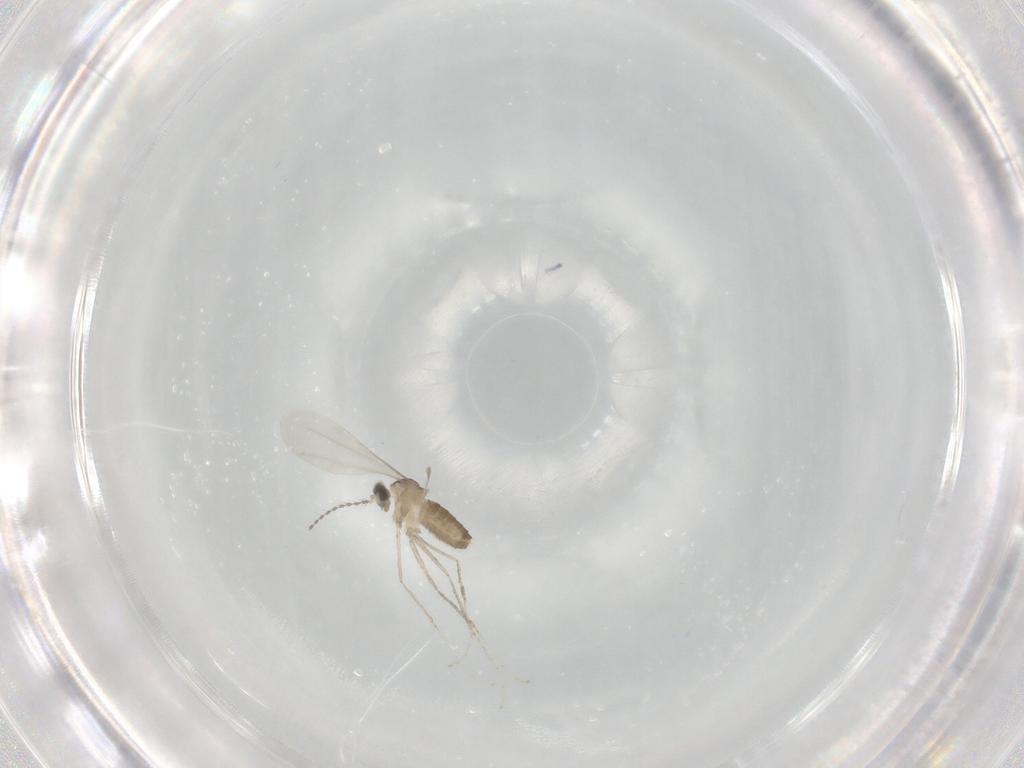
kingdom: Animalia
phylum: Arthropoda
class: Insecta
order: Diptera
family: Cecidomyiidae
